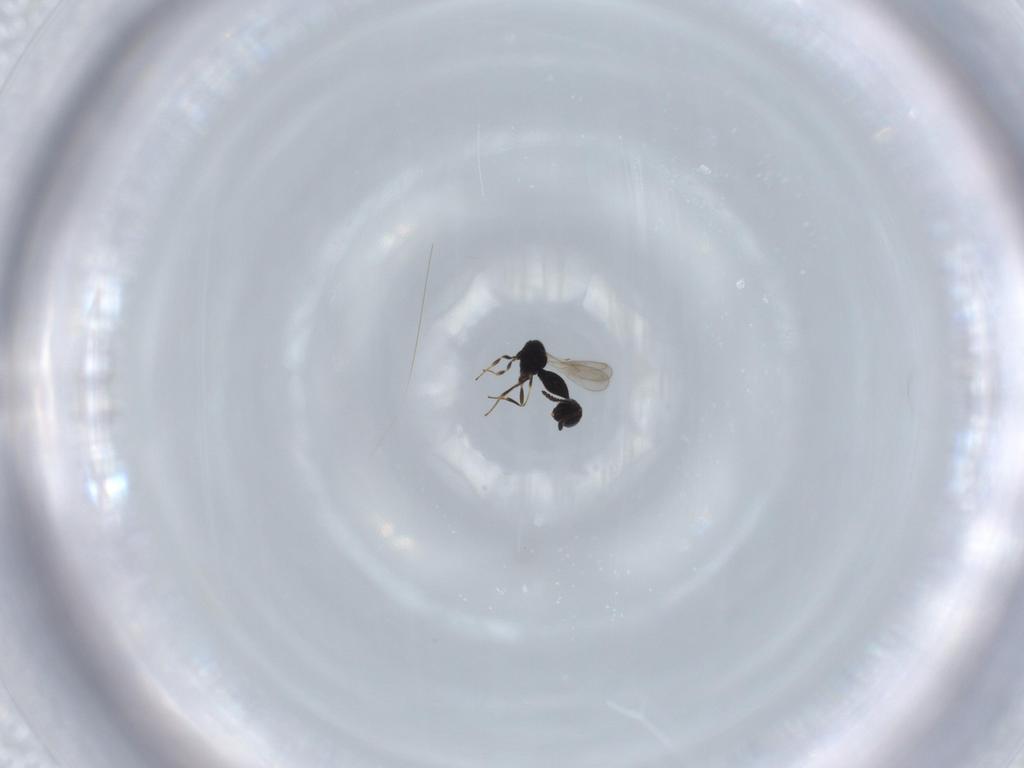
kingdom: Animalia
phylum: Arthropoda
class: Insecta
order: Hymenoptera
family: Scelionidae
